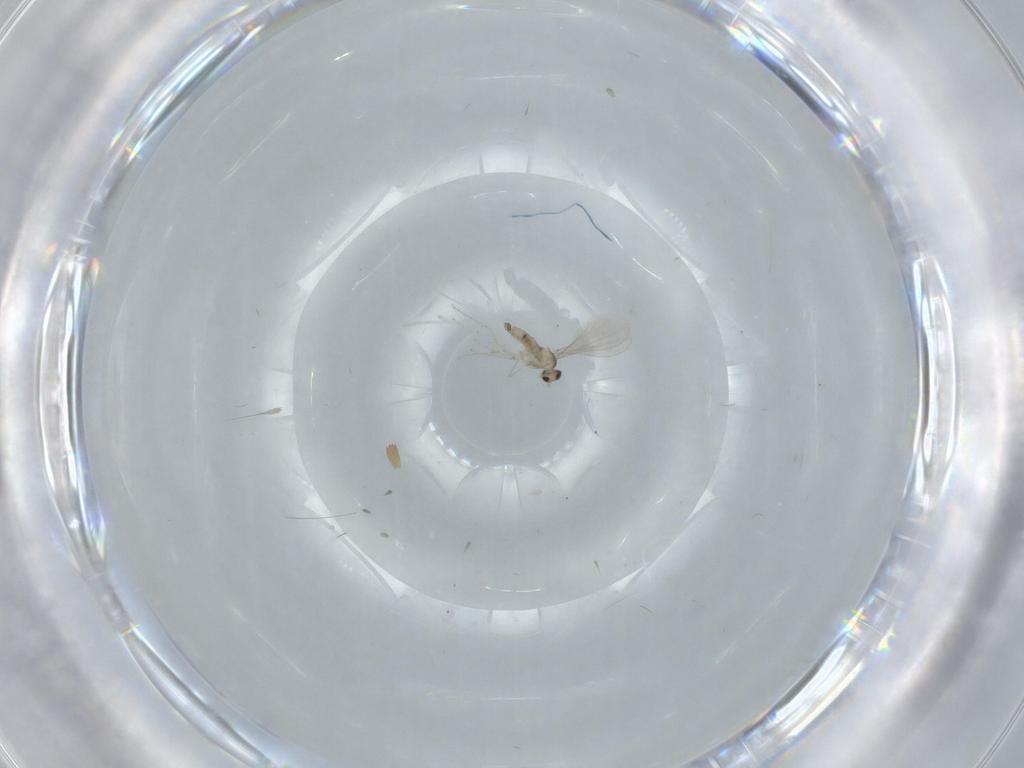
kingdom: Animalia
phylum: Arthropoda
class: Insecta
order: Diptera
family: Cecidomyiidae
